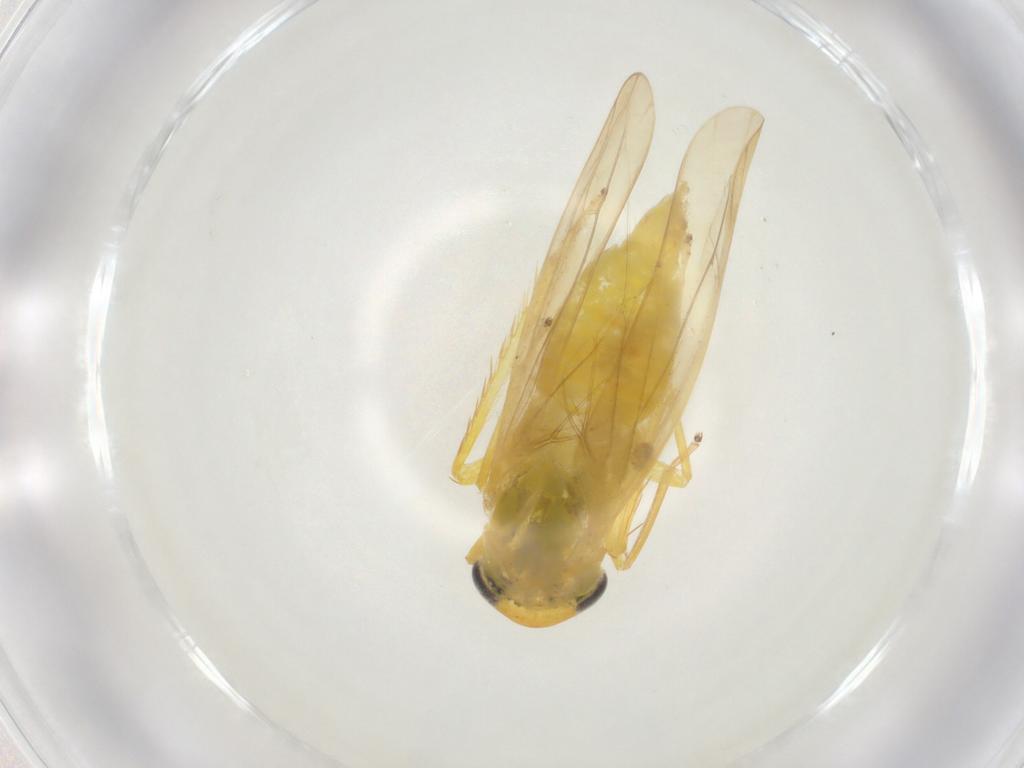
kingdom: Animalia
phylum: Arthropoda
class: Insecta
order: Hemiptera
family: Cicadellidae
